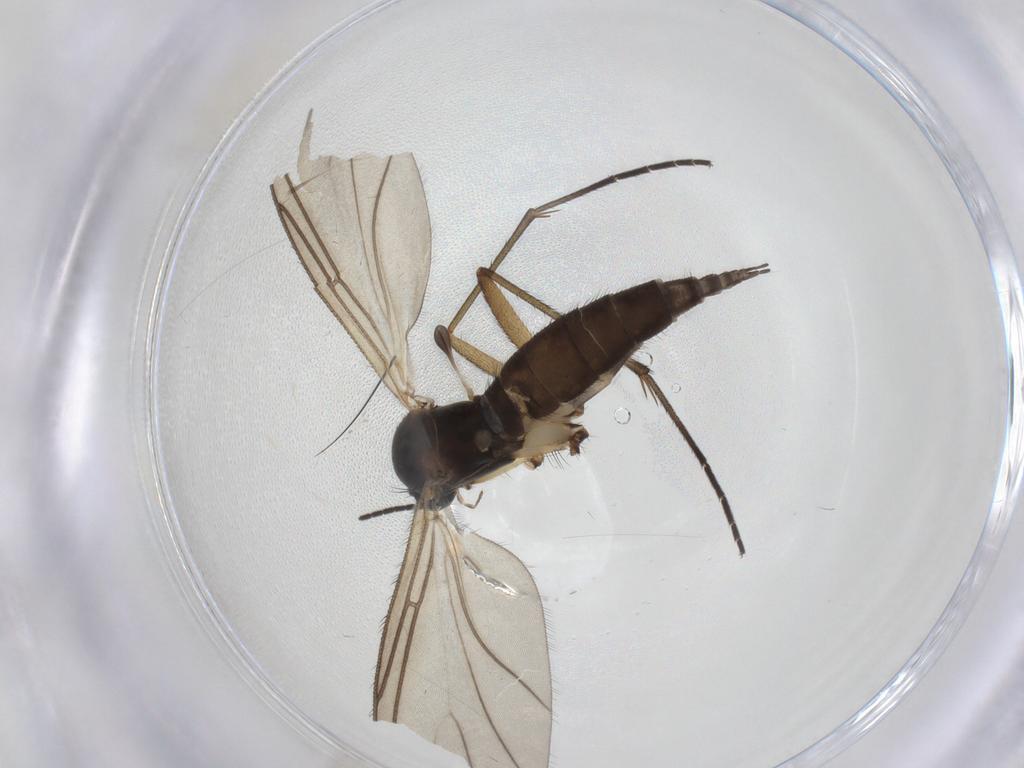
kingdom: Animalia
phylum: Arthropoda
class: Insecta
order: Diptera
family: Sciaridae
